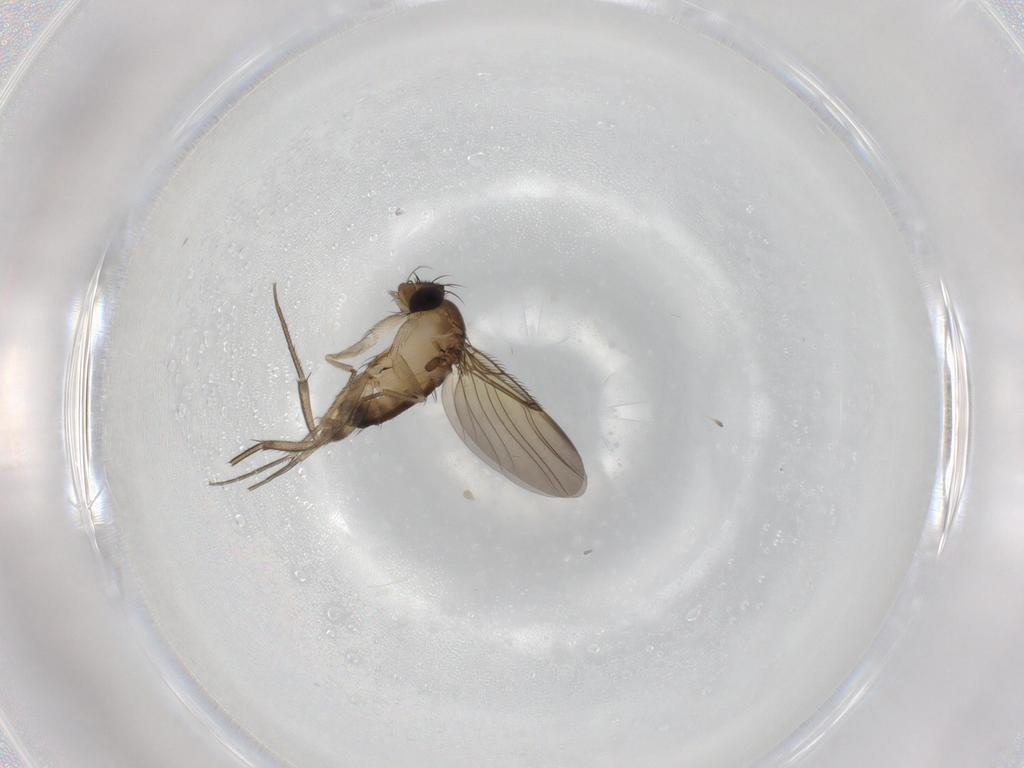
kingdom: Animalia
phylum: Arthropoda
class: Insecta
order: Diptera
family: Phoridae
